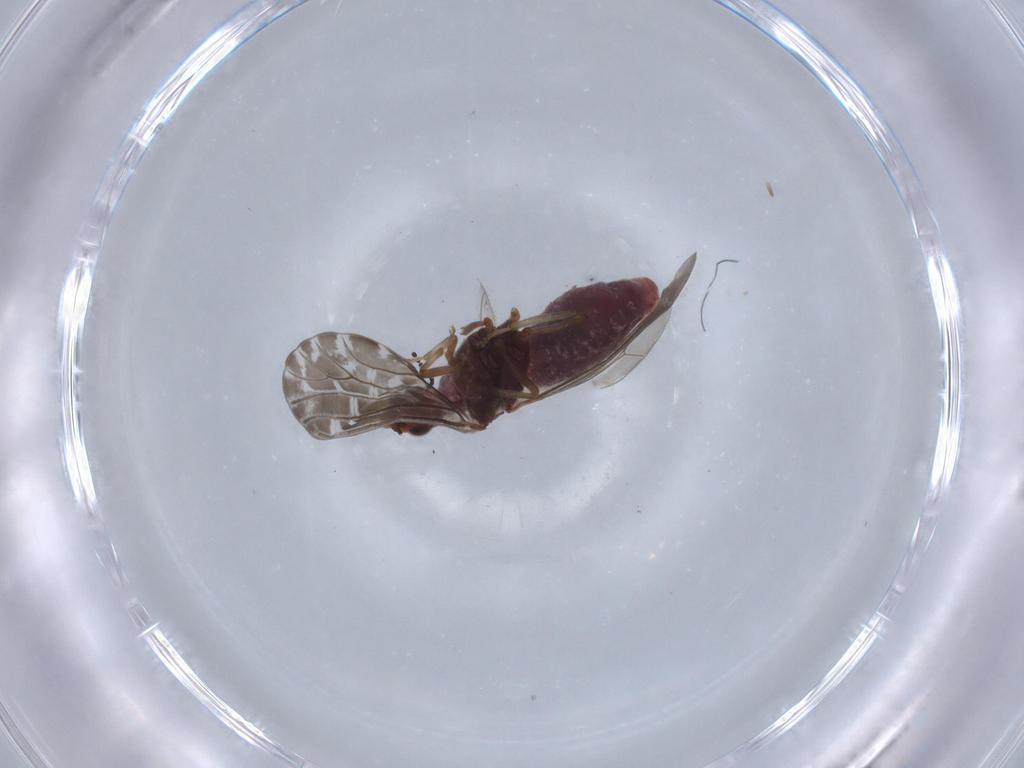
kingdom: Animalia
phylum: Arthropoda
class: Insecta
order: Neuroptera
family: Coniopterygidae
